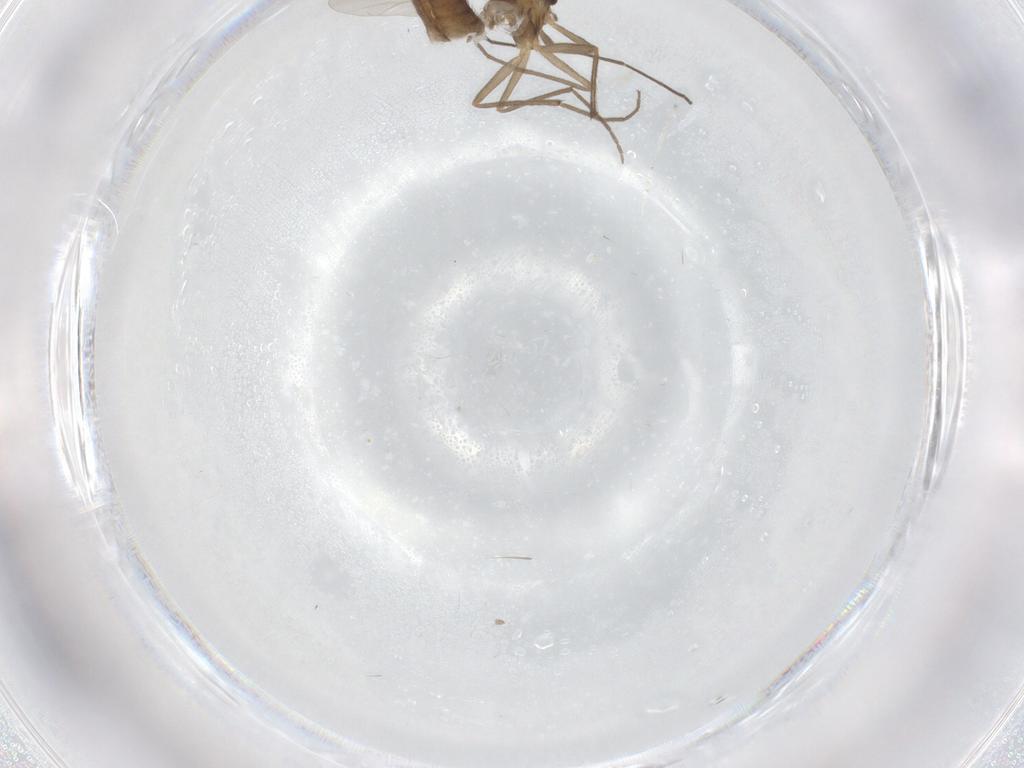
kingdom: Animalia
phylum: Arthropoda
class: Insecta
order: Diptera
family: Chironomidae
